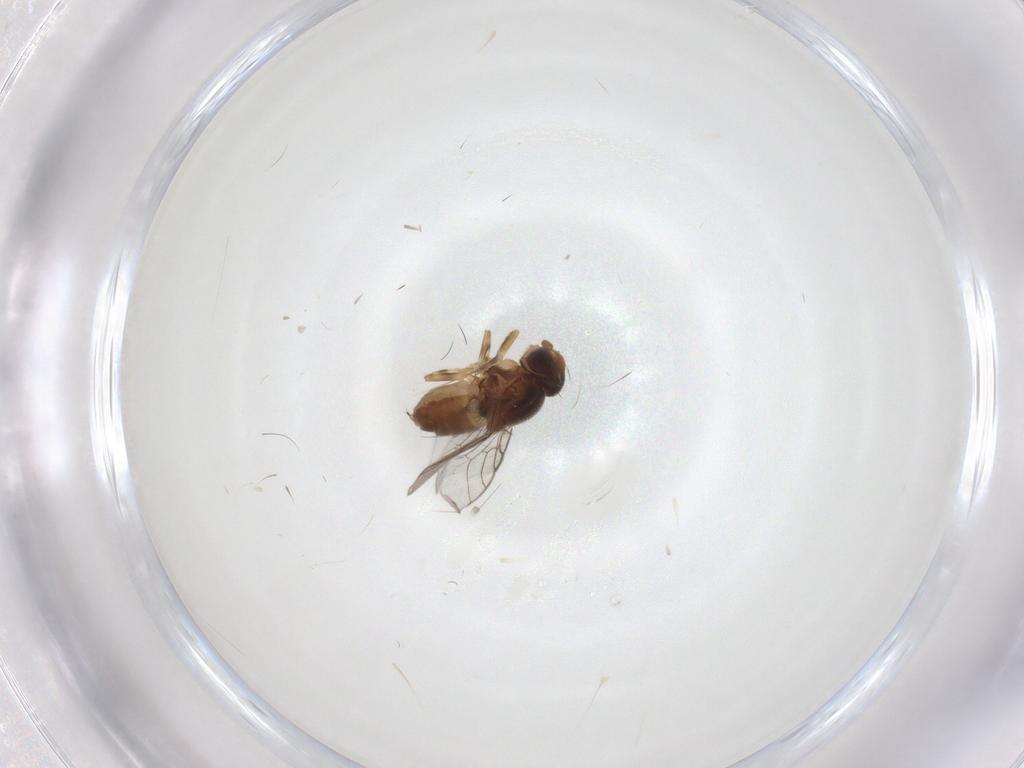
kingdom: Animalia
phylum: Arthropoda
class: Insecta
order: Diptera
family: Chloropidae
